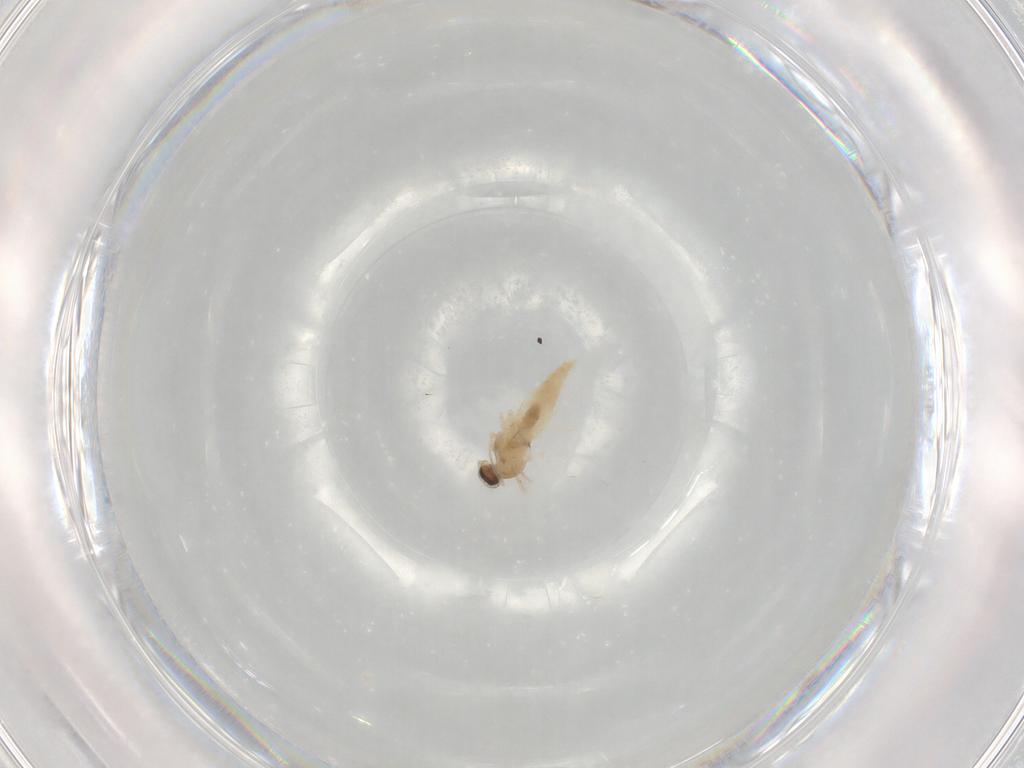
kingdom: Animalia
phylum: Arthropoda
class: Insecta
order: Diptera
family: Cecidomyiidae
